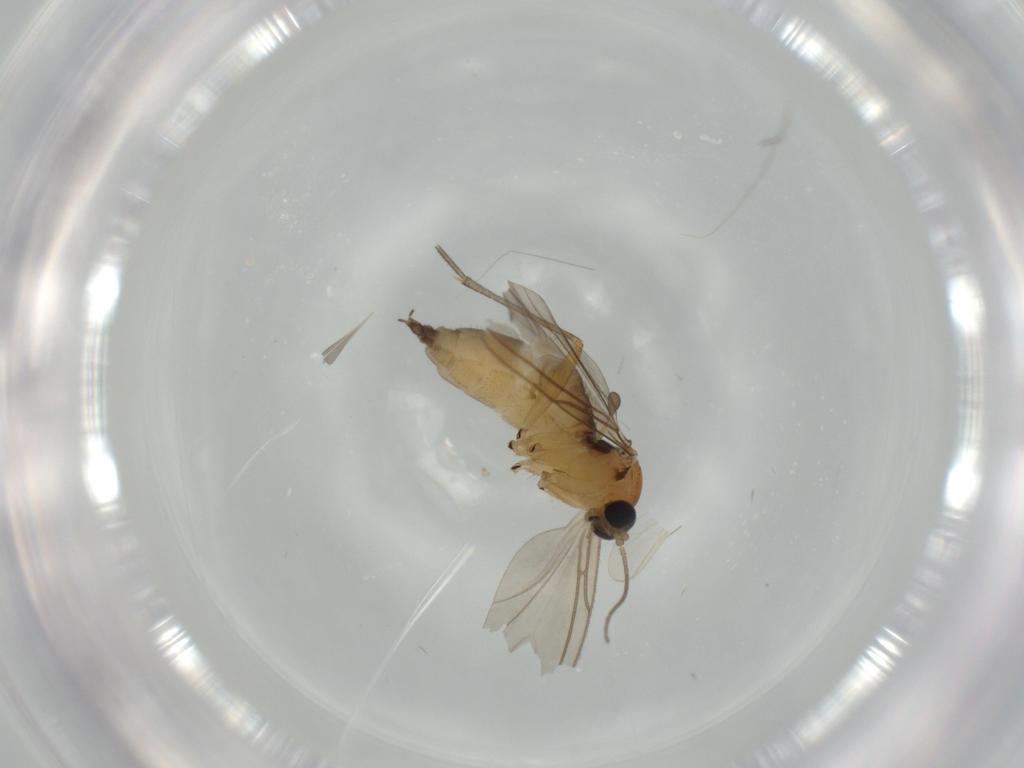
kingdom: Animalia
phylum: Arthropoda
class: Insecta
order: Diptera
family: Sciaridae
